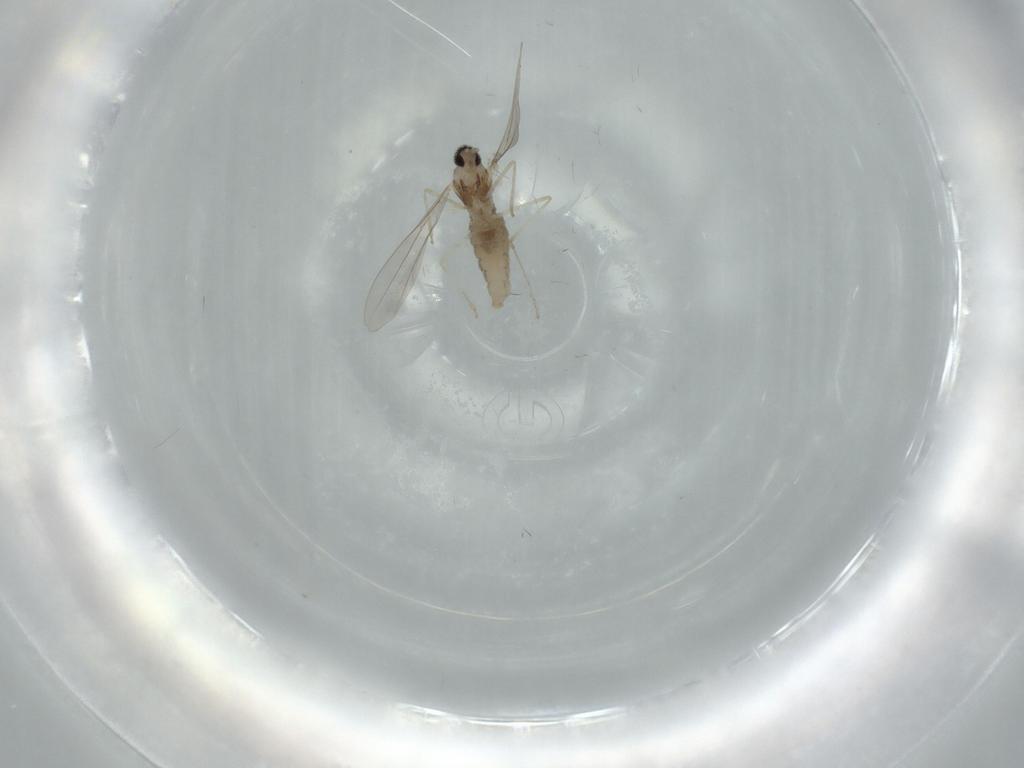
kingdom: Animalia
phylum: Arthropoda
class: Insecta
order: Diptera
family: Cecidomyiidae
